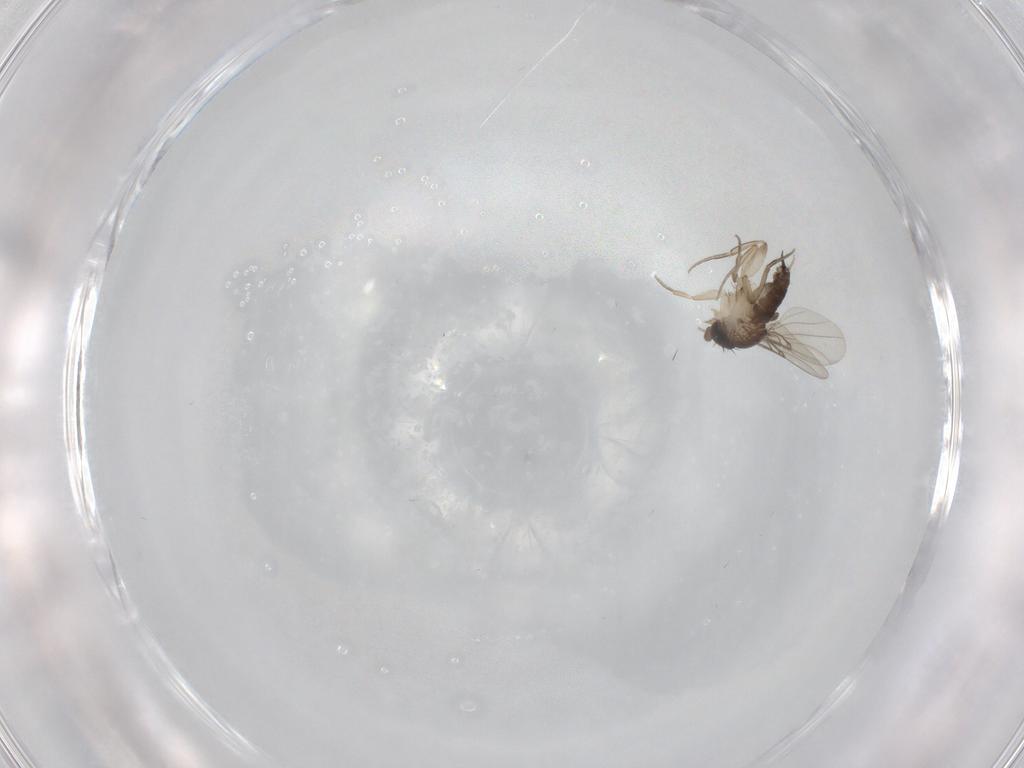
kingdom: Animalia
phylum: Arthropoda
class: Insecta
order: Diptera
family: Phoridae
